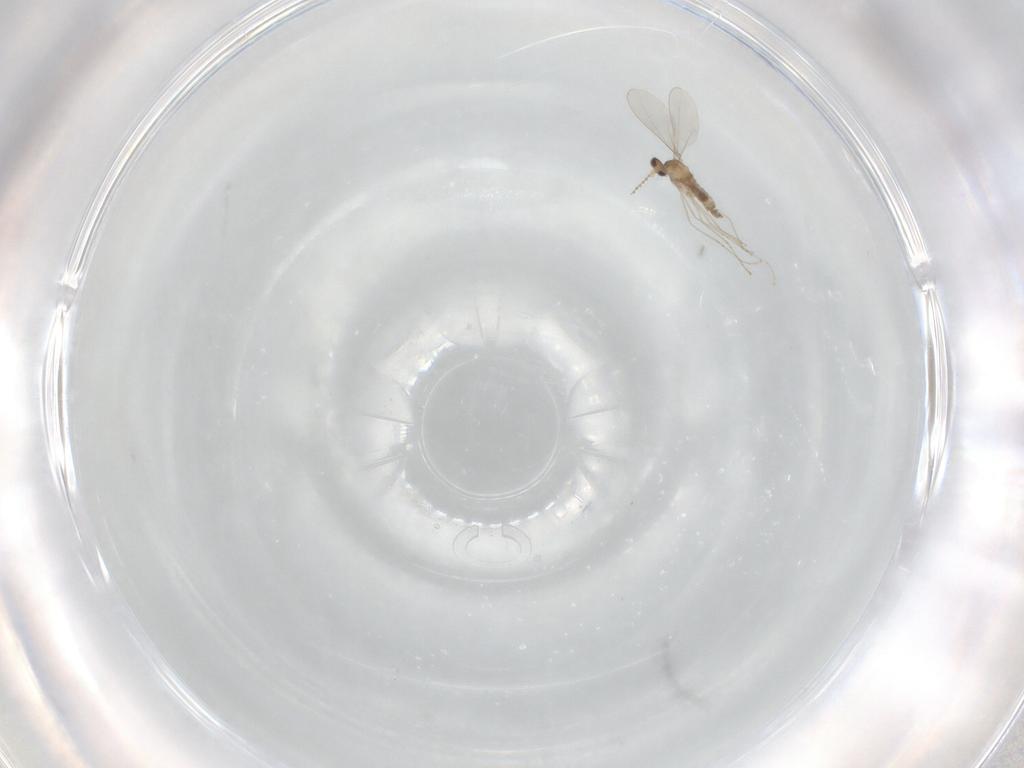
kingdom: Animalia
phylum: Arthropoda
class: Insecta
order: Diptera
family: Cecidomyiidae
